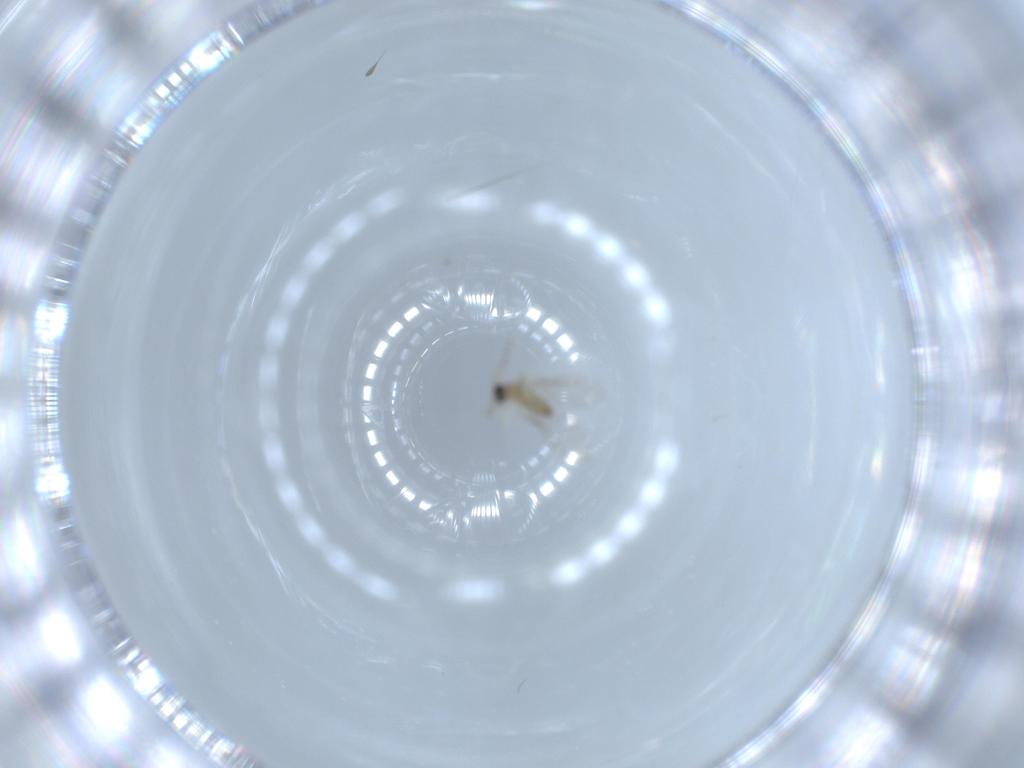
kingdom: Animalia
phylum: Arthropoda
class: Insecta
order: Diptera
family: Cecidomyiidae
